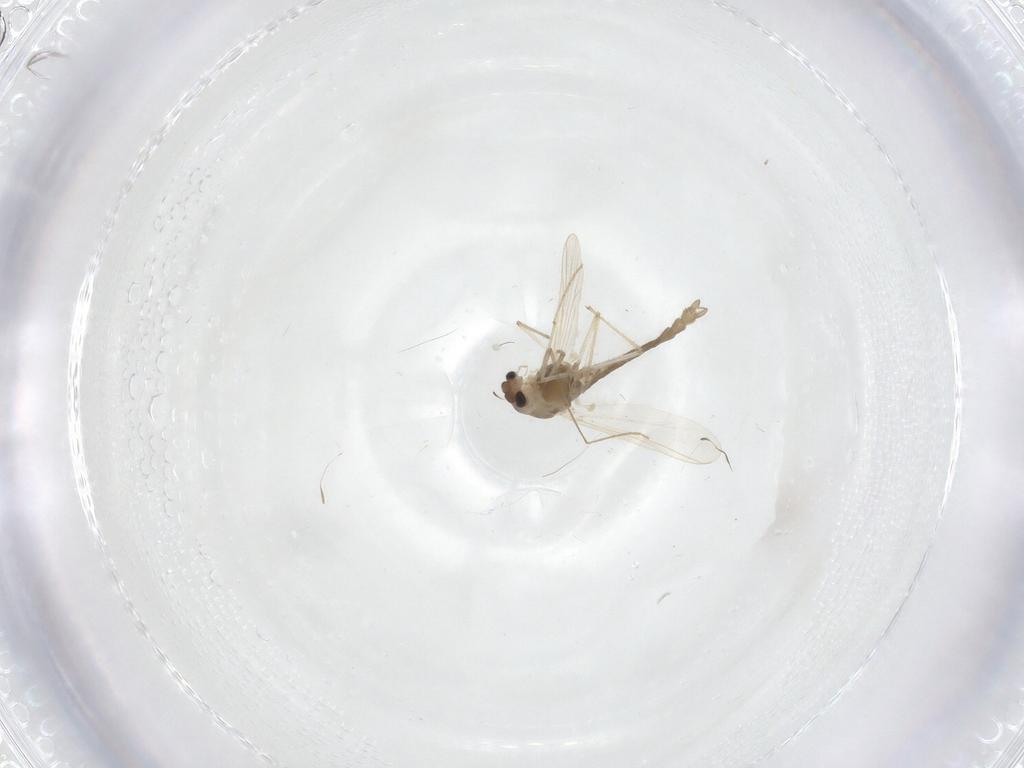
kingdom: Animalia
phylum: Arthropoda
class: Insecta
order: Diptera
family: Chironomidae
